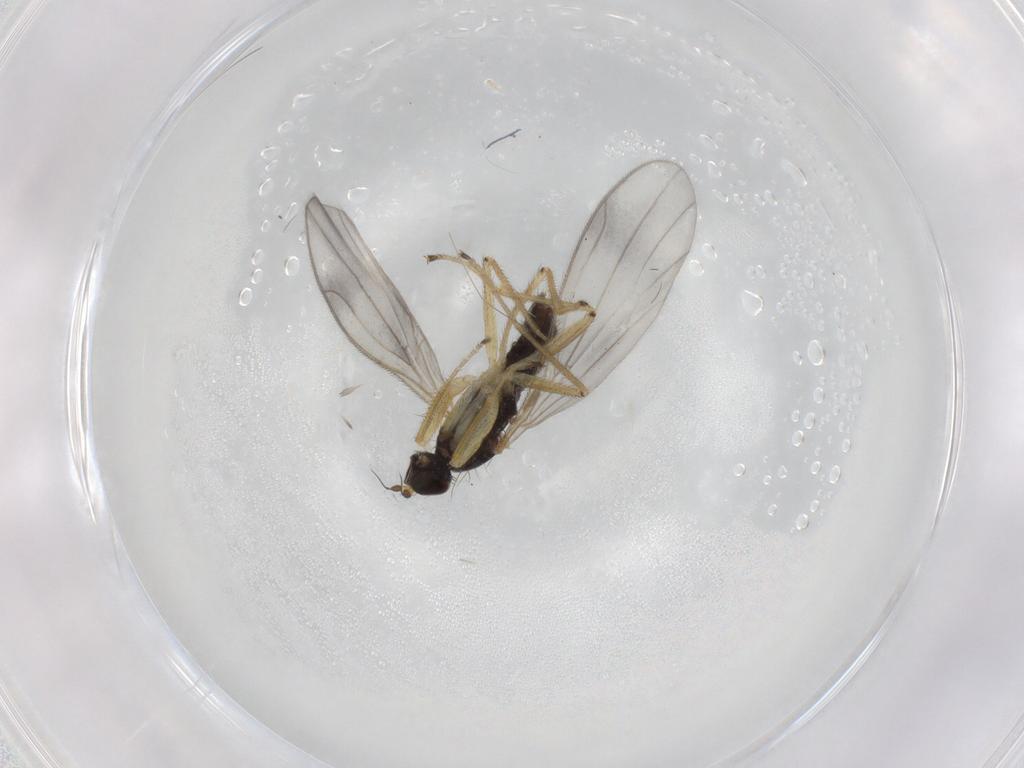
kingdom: Animalia
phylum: Arthropoda
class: Insecta
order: Diptera
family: Empididae
